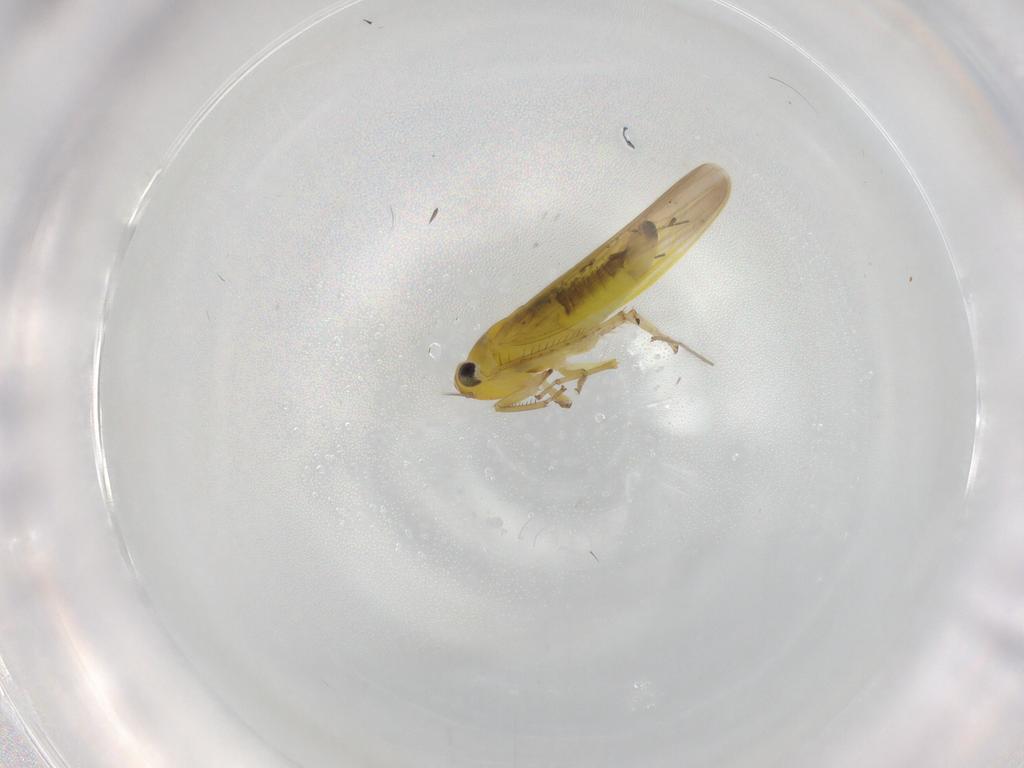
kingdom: Animalia
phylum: Arthropoda
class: Insecta
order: Hemiptera
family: Cicadellidae
